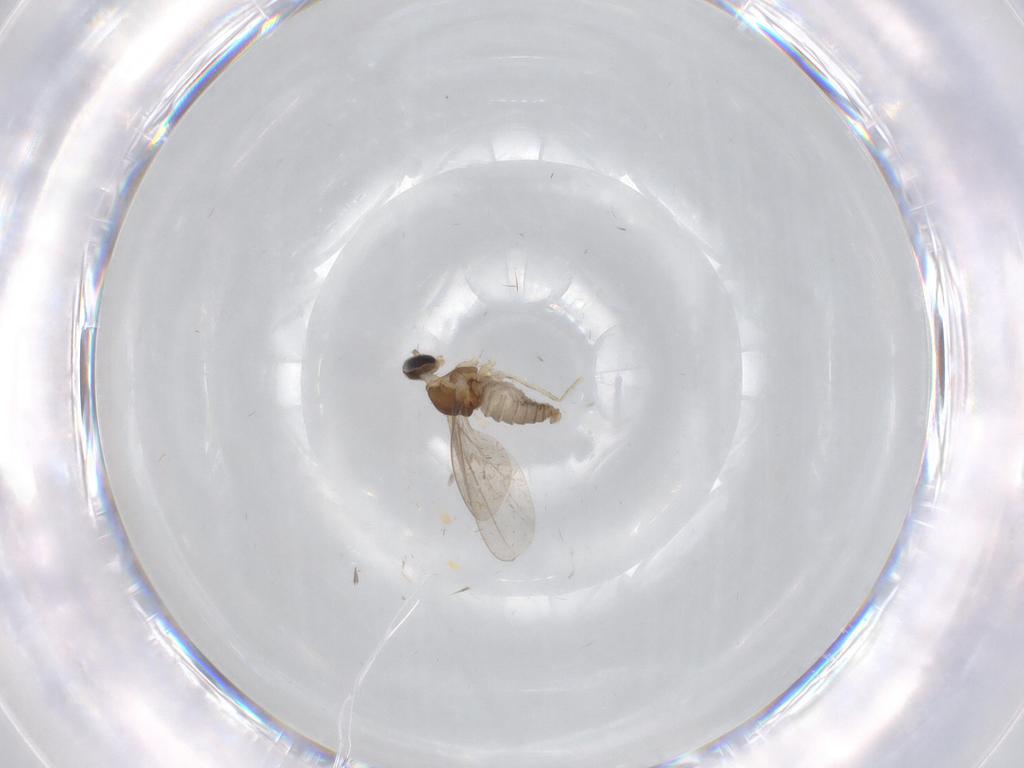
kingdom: Animalia
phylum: Arthropoda
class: Insecta
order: Diptera
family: Cecidomyiidae
